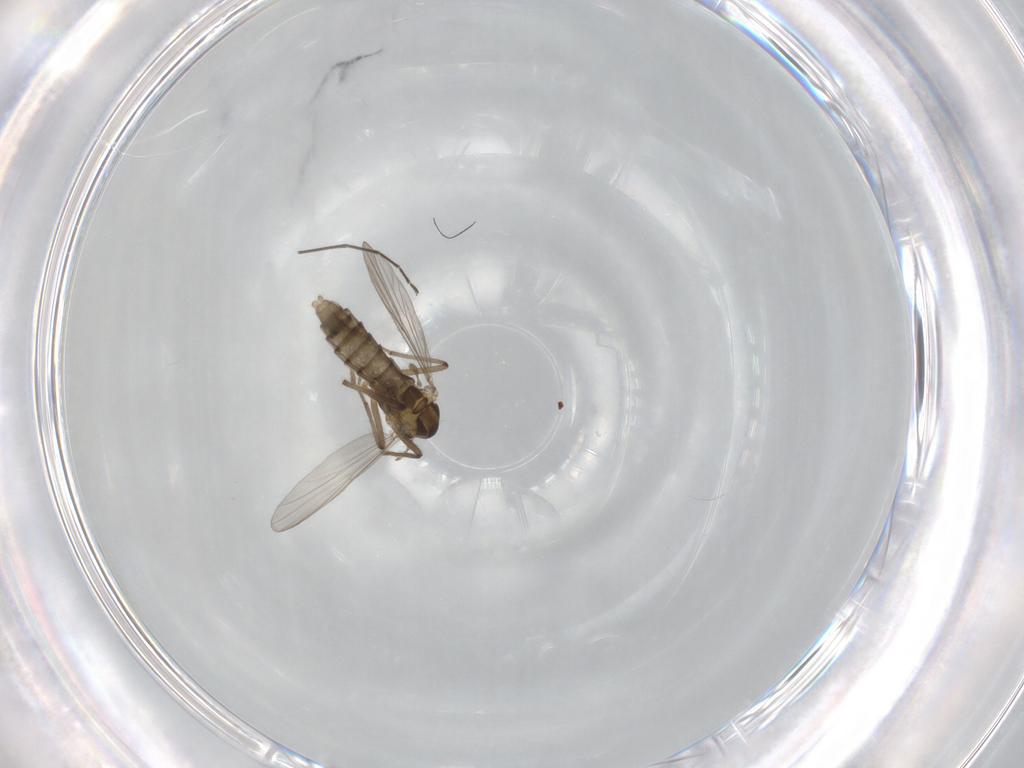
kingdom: Animalia
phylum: Arthropoda
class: Insecta
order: Diptera
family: Chironomidae
